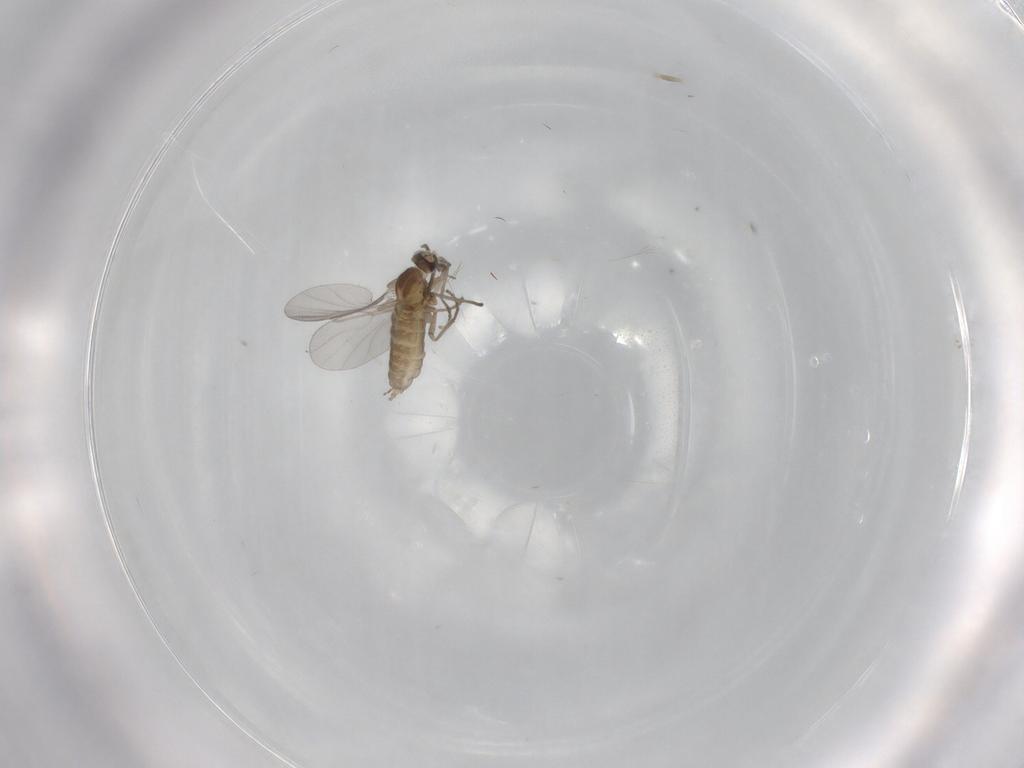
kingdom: Animalia
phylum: Arthropoda
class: Insecta
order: Diptera
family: Cecidomyiidae
